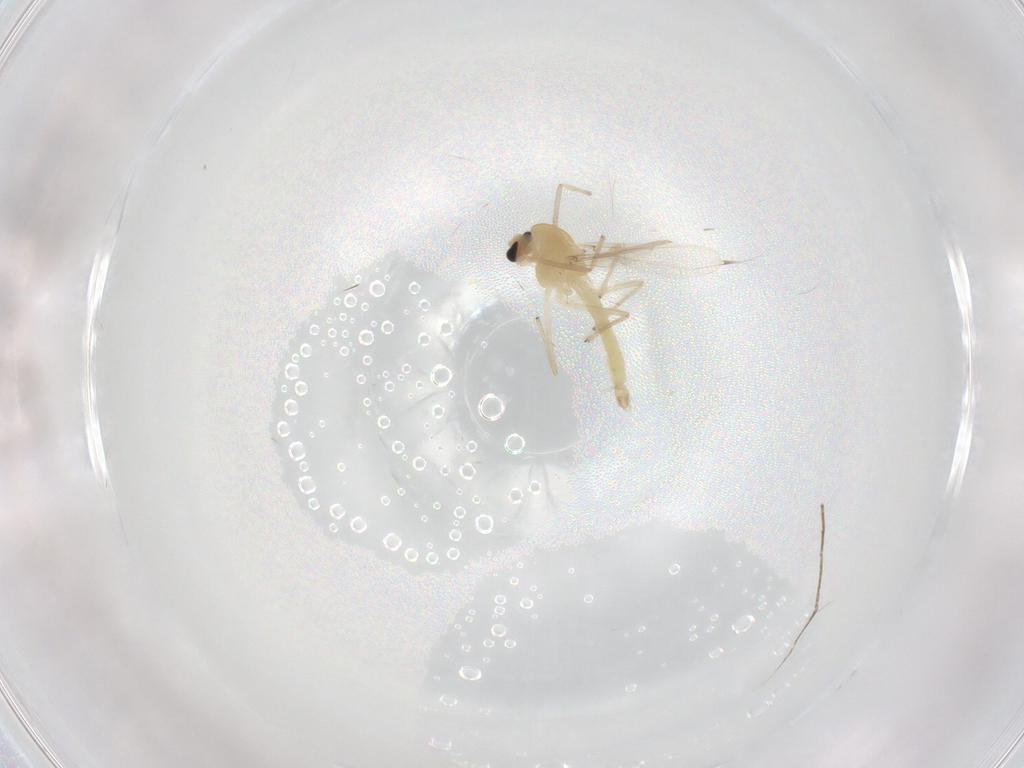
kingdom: Animalia
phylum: Arthropoda
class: Insecta
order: Diptera
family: Chironomidae
